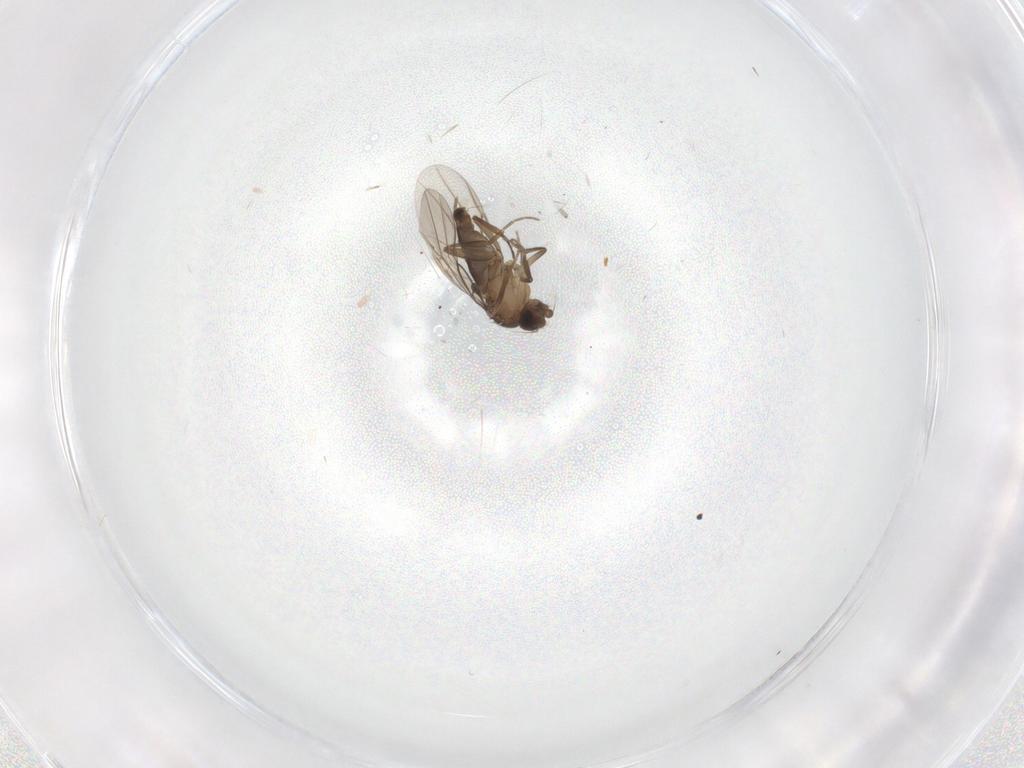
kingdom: Animalia
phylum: Arthropoda
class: Insecta
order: Diptera
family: Phoridae
